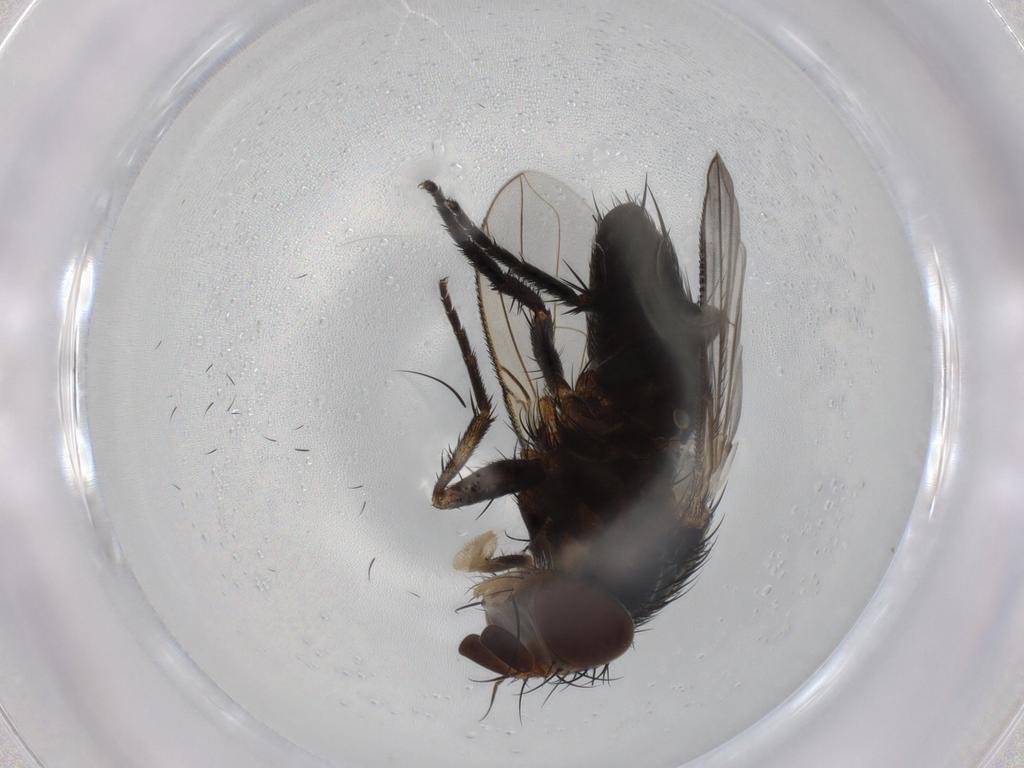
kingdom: Animalia
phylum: Arthropoda
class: Insecta
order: Diptera
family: Tachinidae
